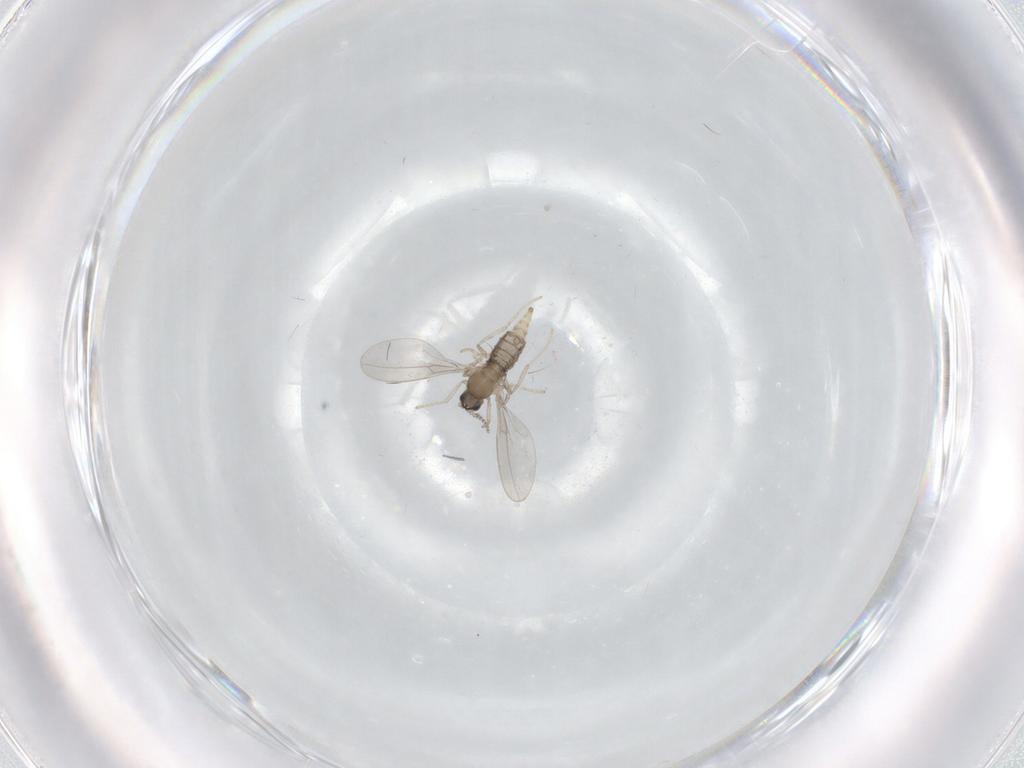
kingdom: Animalia
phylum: Arthropoda
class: Insecta
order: Diptera
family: Cecidomyiidae
